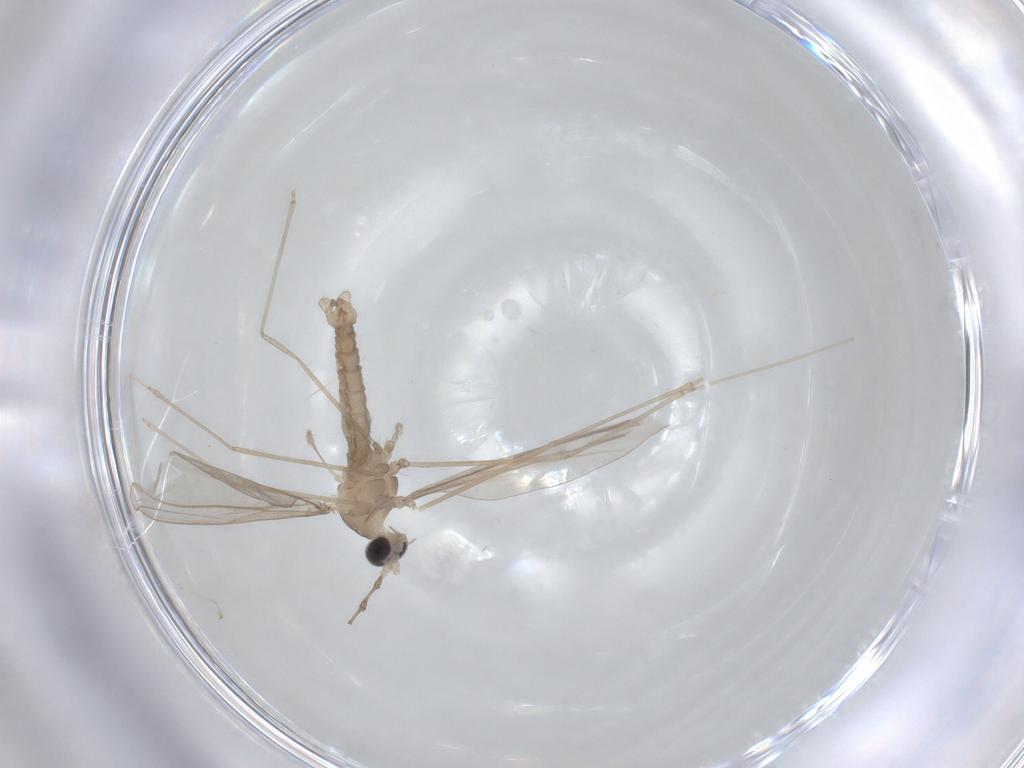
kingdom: Animalia
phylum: Arthropoda
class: Insecta
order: Diptera
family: Cecidomyiidae
